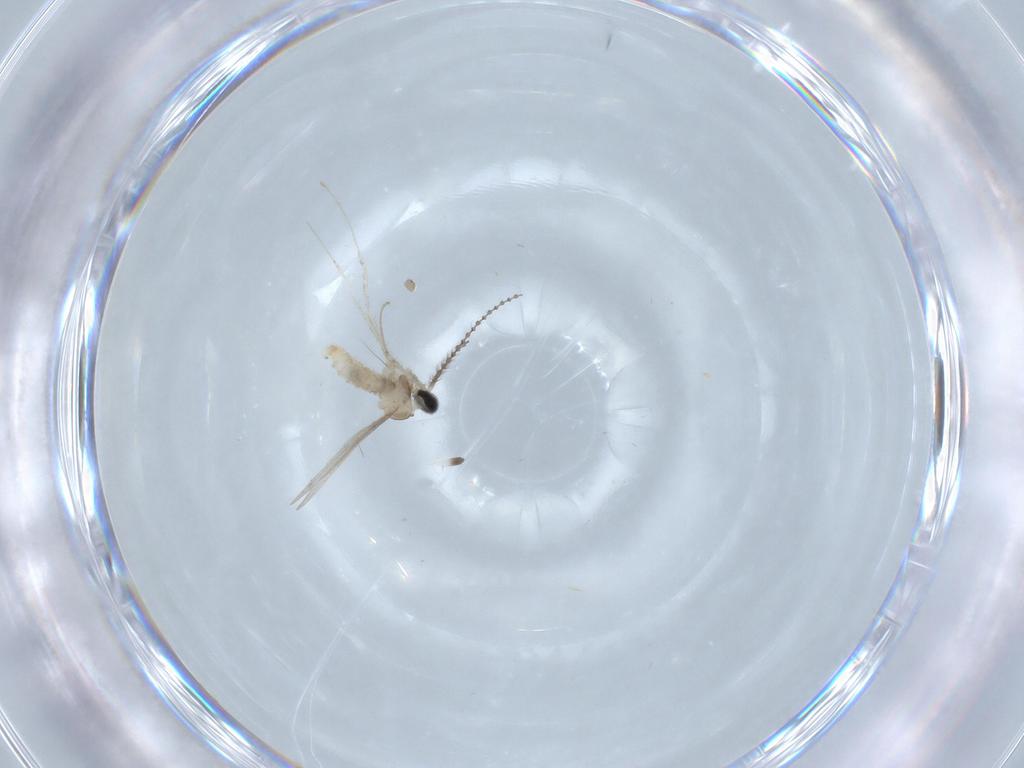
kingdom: Animalia
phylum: Arthropoda
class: Insecta
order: Diptera
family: Cecidomyiidae
